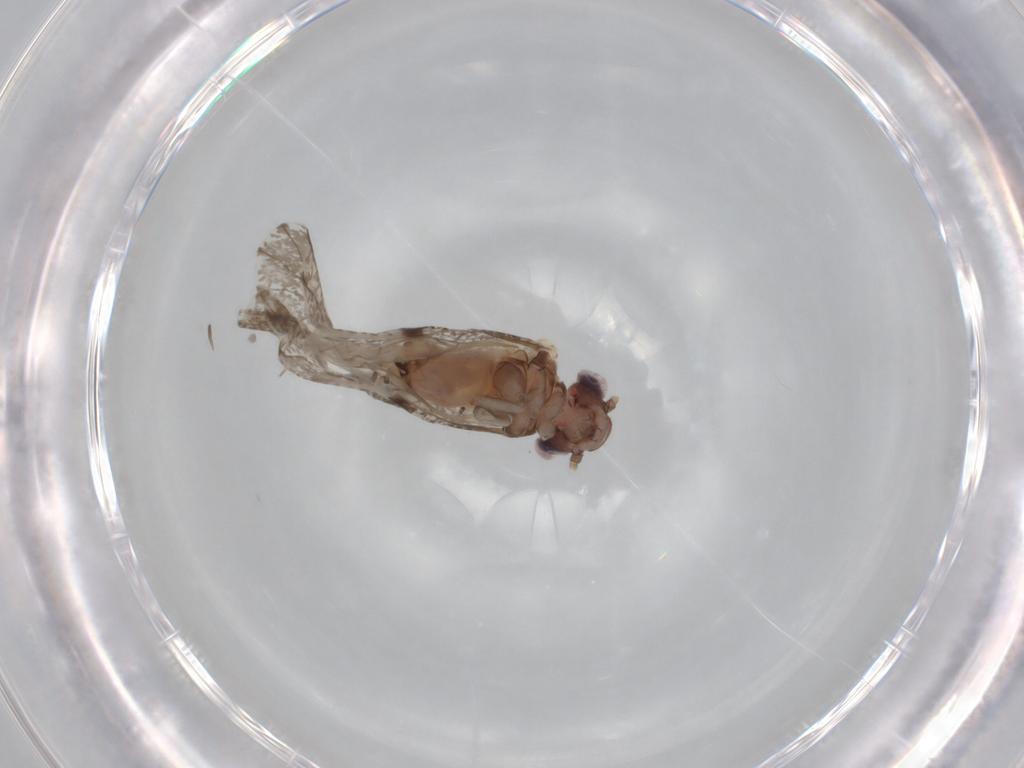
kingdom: Animalia
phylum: Arthropoda
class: Insecta
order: Psocodea
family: Psocidae
